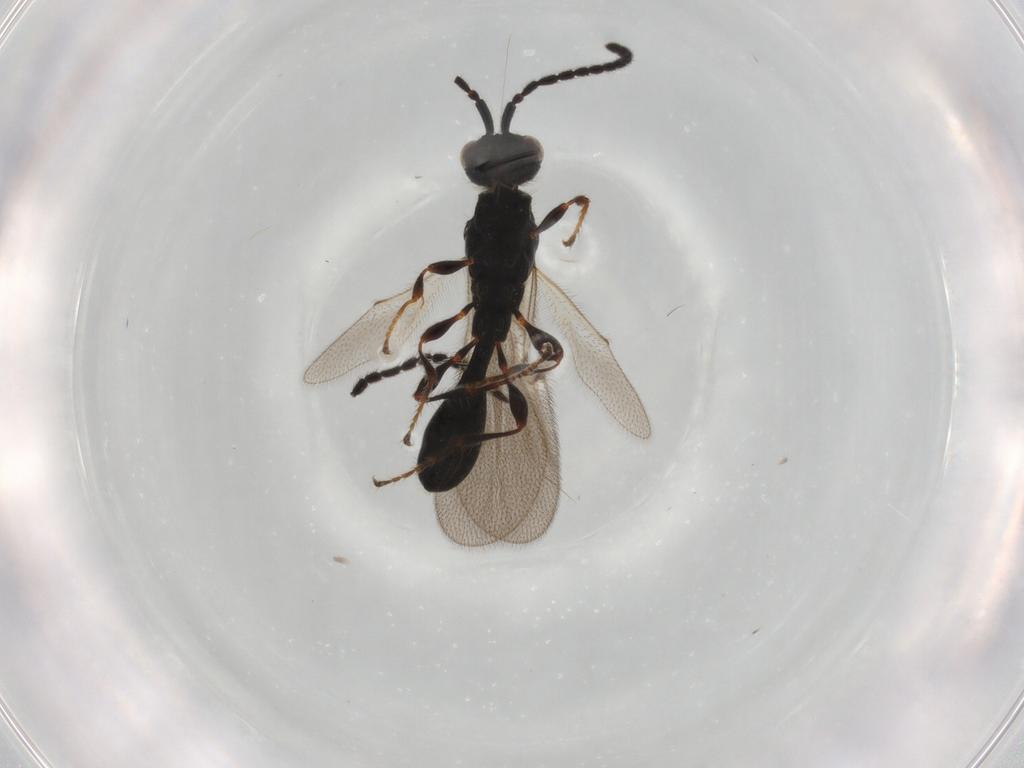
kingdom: Animalia
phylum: Arthropoda
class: Insecta
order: Hymenoptera
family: Diapriidae
